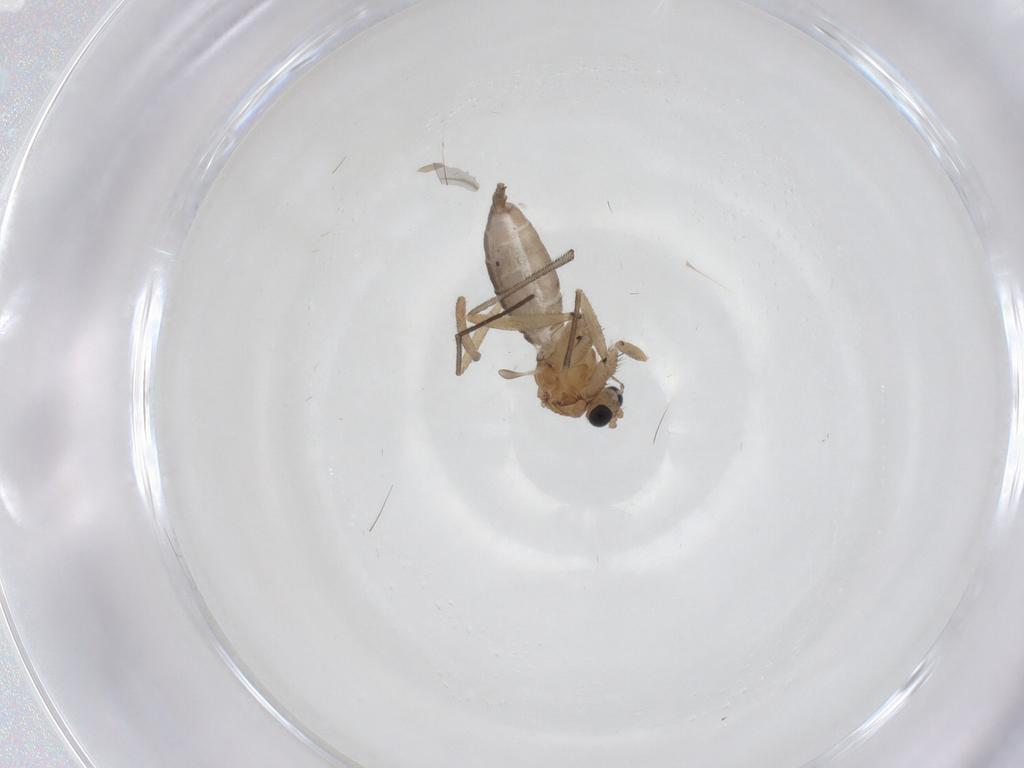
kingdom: Animalia
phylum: Arthropoda
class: Insecta
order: Diptera
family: Sciaridae
